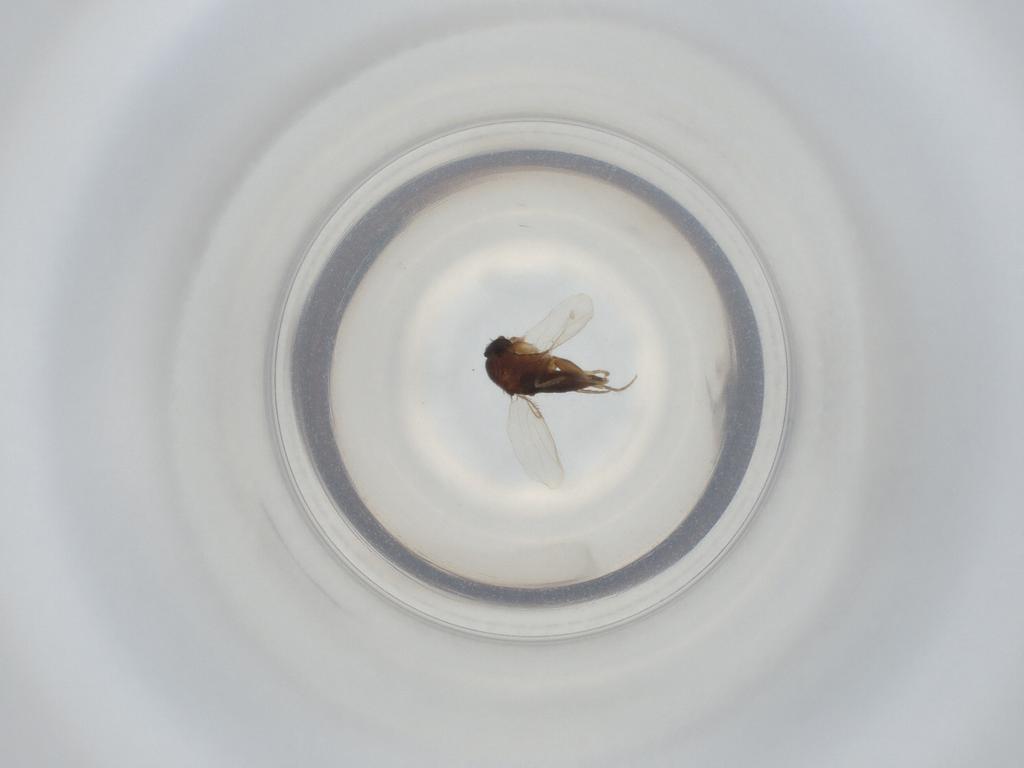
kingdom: Animalia
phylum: Arthropoda
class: Insecta
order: Diptera
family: Phoridae
